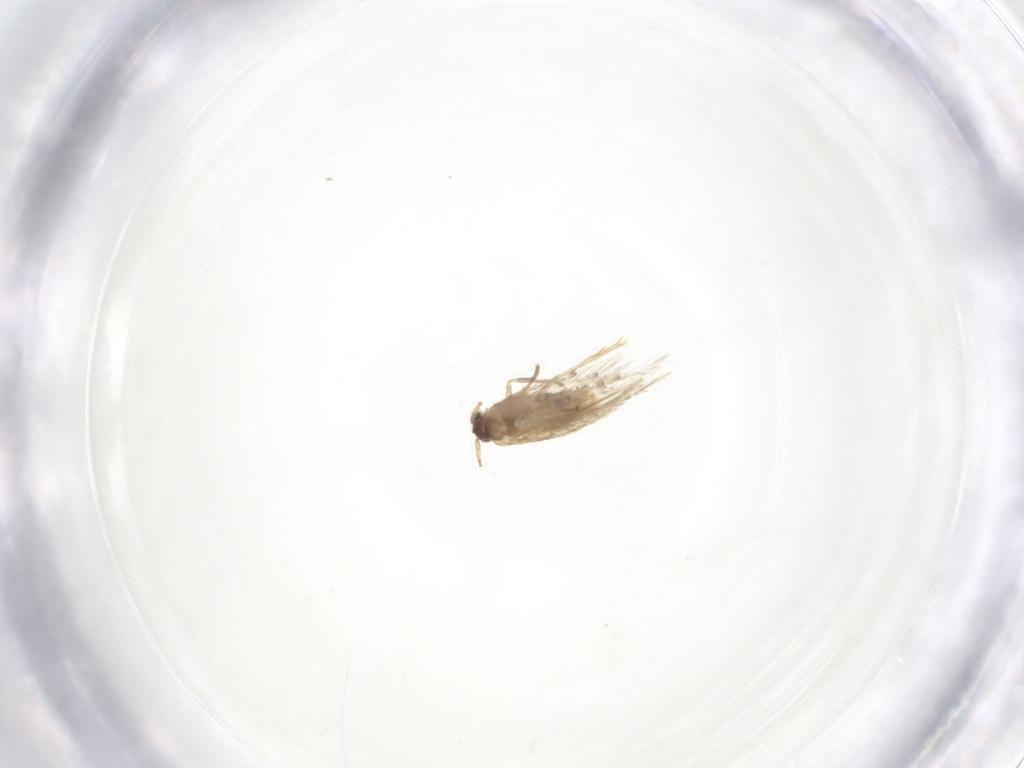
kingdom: Animalia
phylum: Arthropoda
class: Insecta
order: Lepidoptera
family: Nepticulidae
